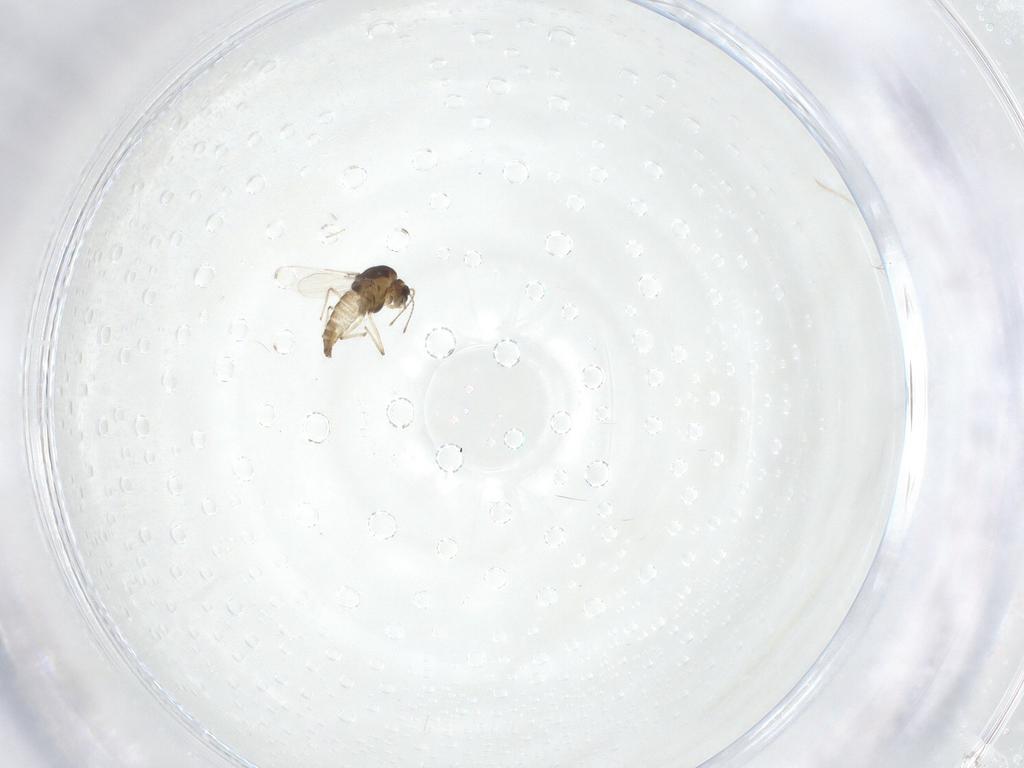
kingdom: Animalia
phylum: Arthropoda
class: Insecta
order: Diptera
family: Chironomidae
